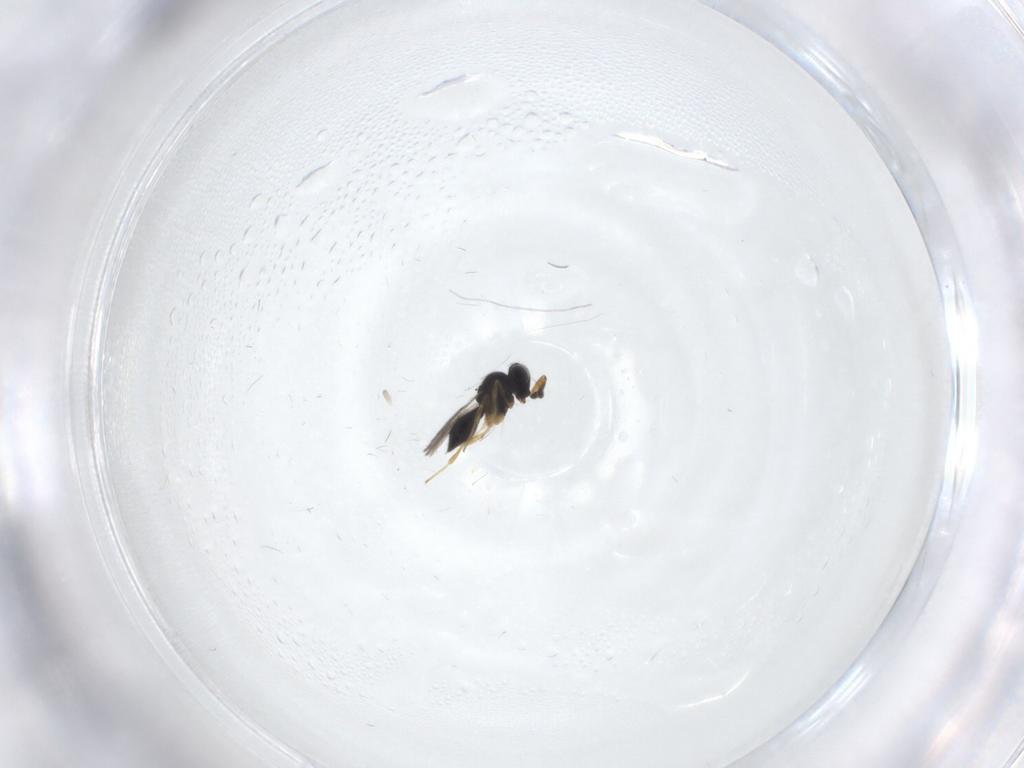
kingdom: Animalia
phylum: Arthropoda
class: Insecta
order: Hymenoptera
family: Scelionidae
